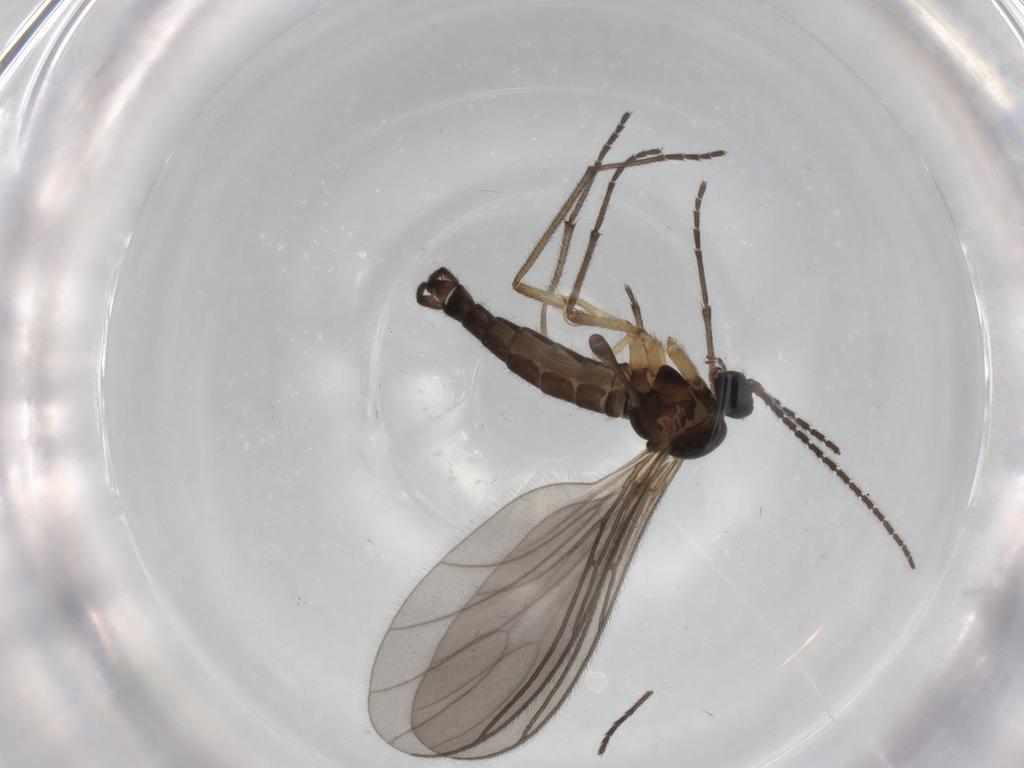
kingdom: Animalia
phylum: Arthropoda
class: Insecta
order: Diptera
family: Sciaridae
